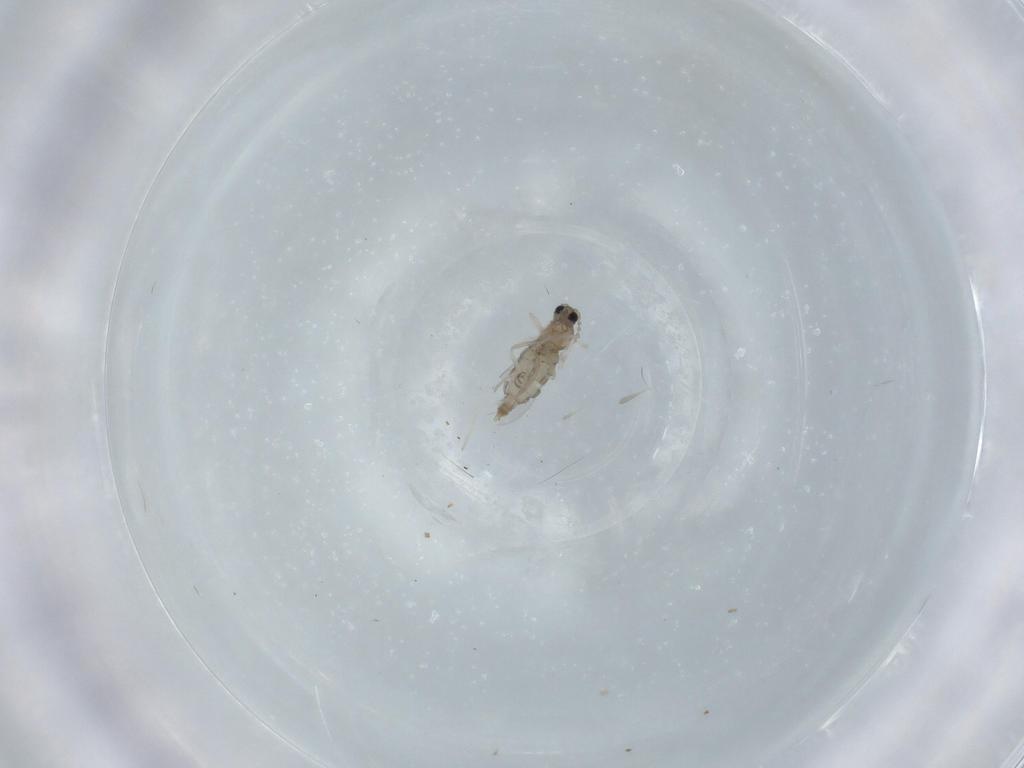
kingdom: Animalia
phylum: Arthropoda
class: Insecta
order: Diptera
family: Cecidomyiidae
